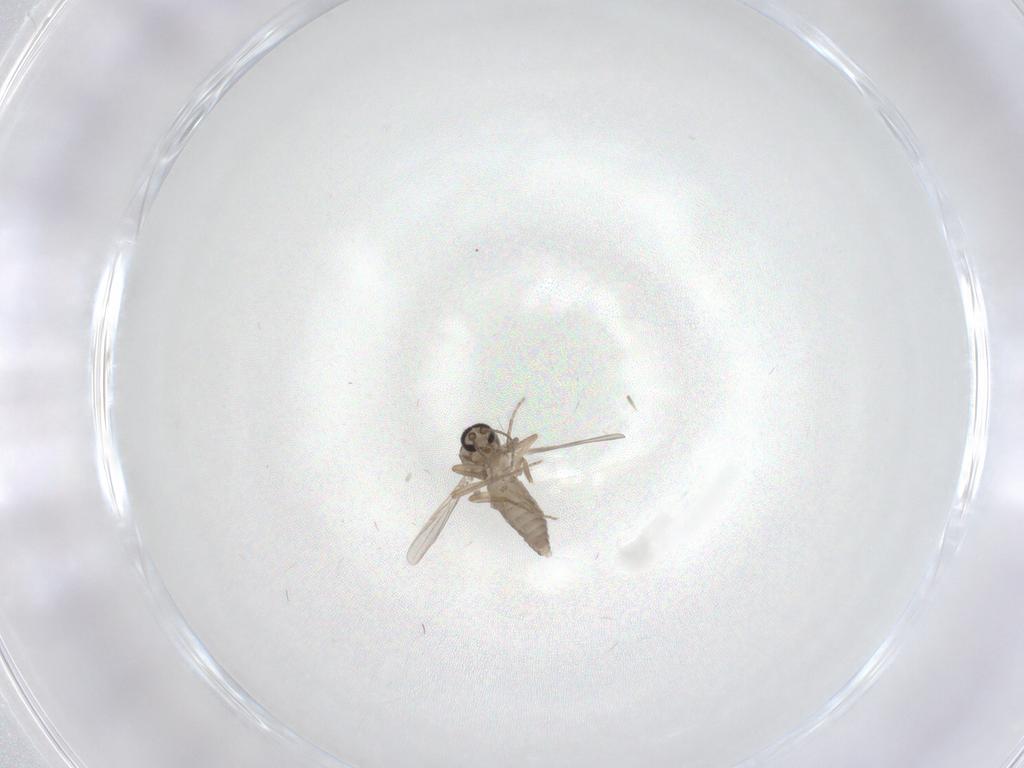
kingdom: Animalia
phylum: Arthropoda
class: Insecta
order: Diptera
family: Ceratopogonidae
